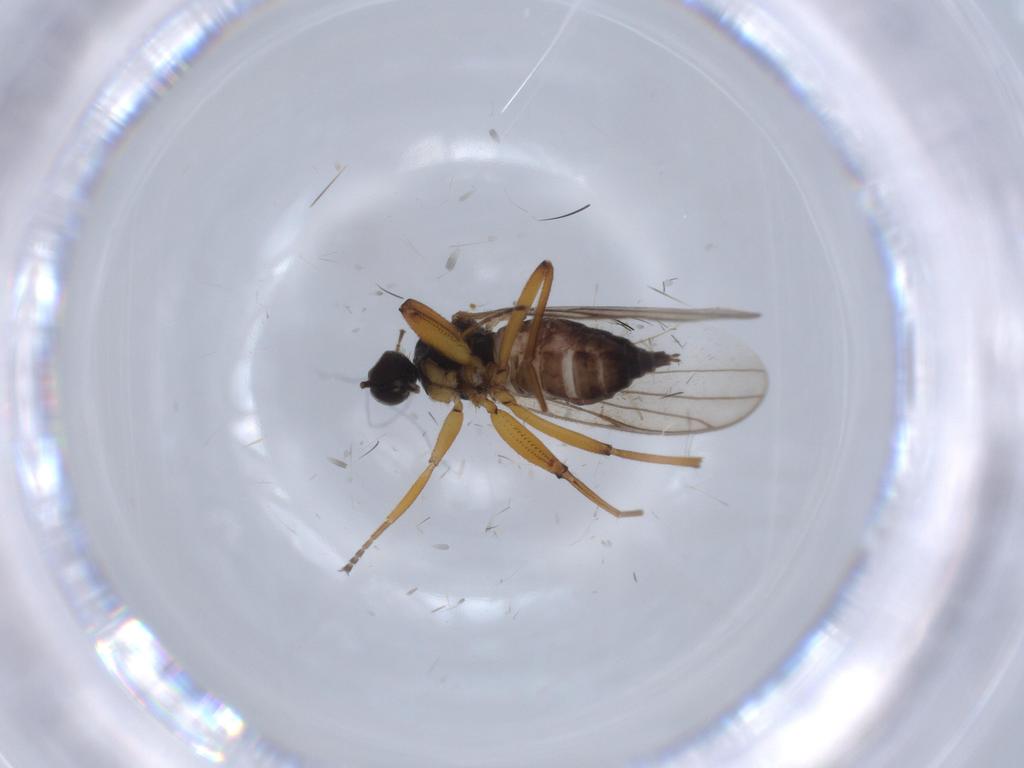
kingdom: Animalia
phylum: Arthropoda
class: Insecta
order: Diptera
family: Hybotidae
